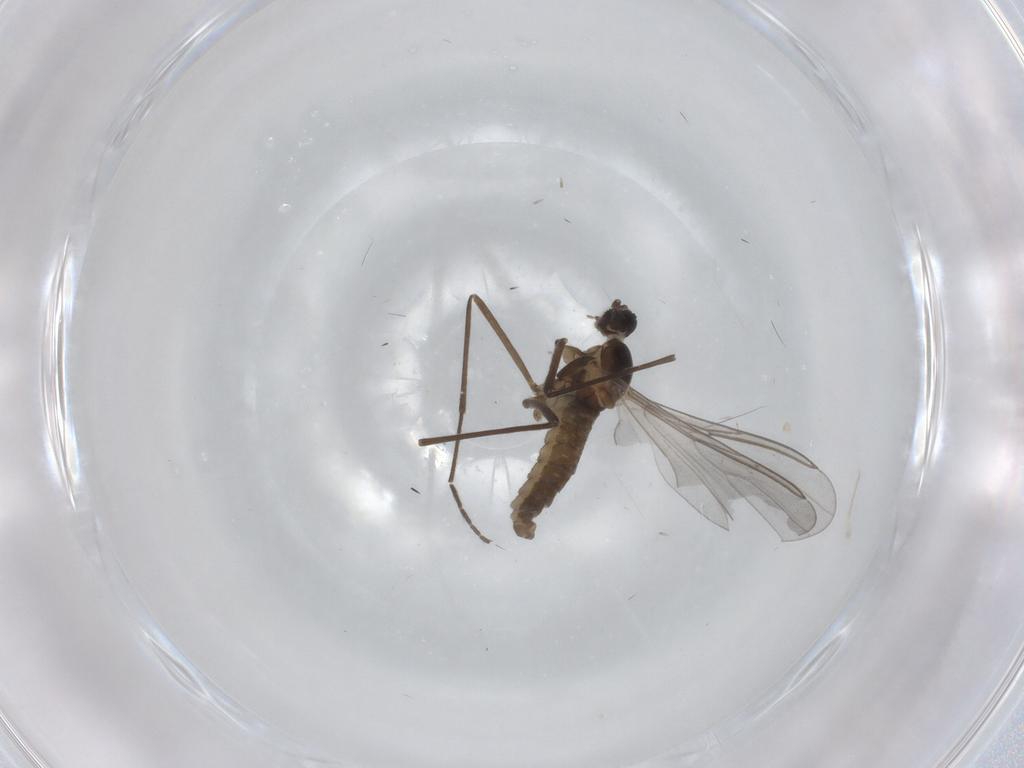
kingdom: Animalia
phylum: Arthropoda
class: Insecta
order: Diptera
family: Cecidomyiidae
